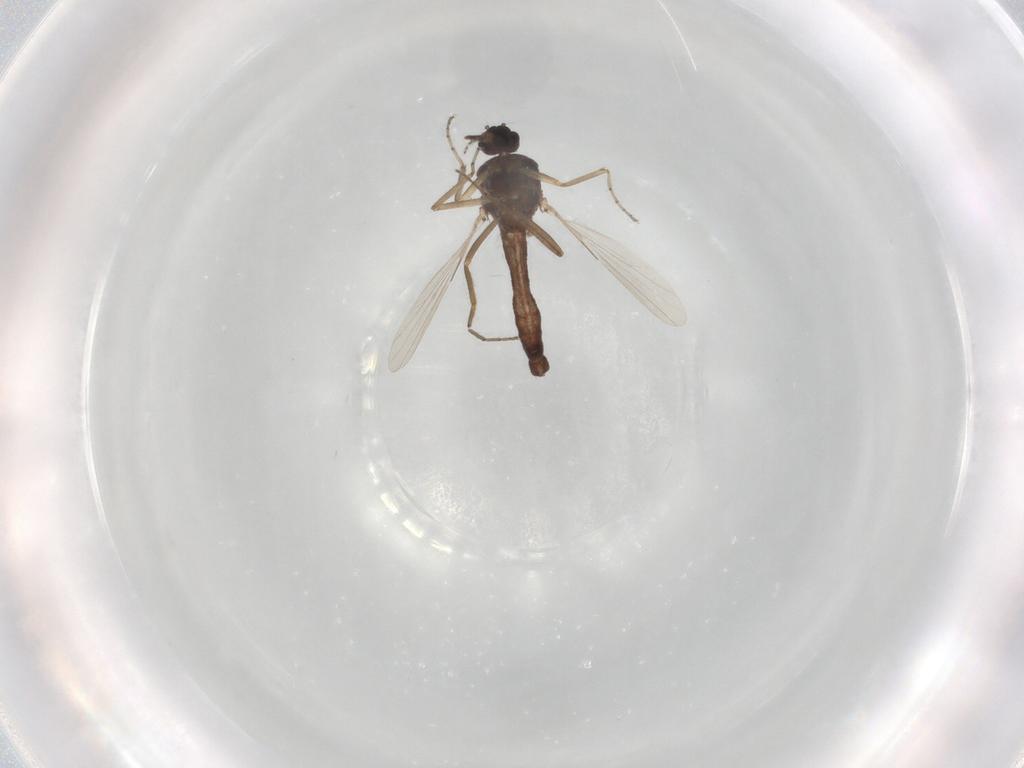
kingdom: Animalia
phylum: Arthropoda
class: Insecta
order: Diptera
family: Ceratopogonidae
